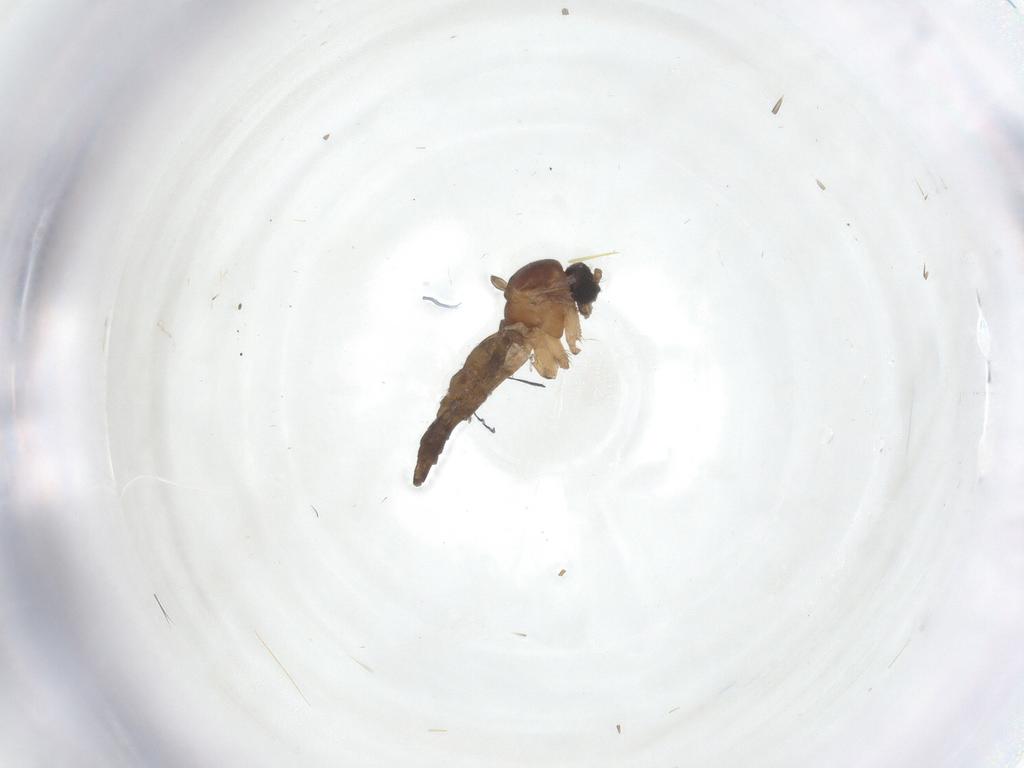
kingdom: Animalia
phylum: Arthropoda
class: Insecta
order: Diptera
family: Sciaridae
